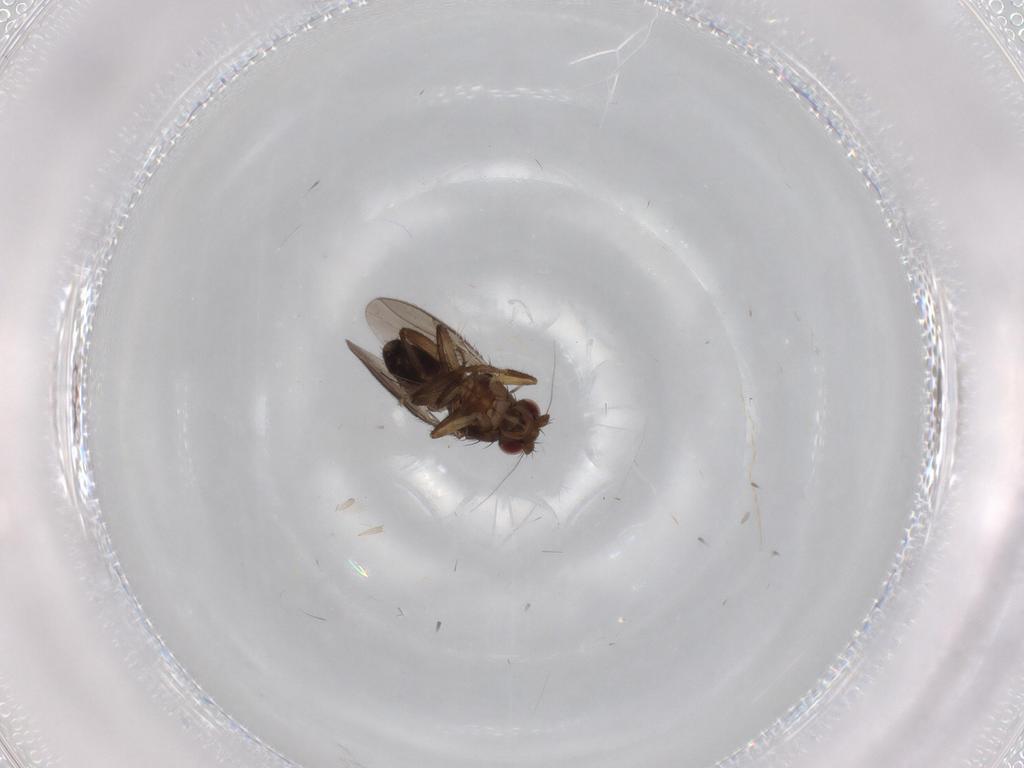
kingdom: Animalia
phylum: Arthropoda
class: Insecta
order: Diptera
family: Sphaeroceridae
